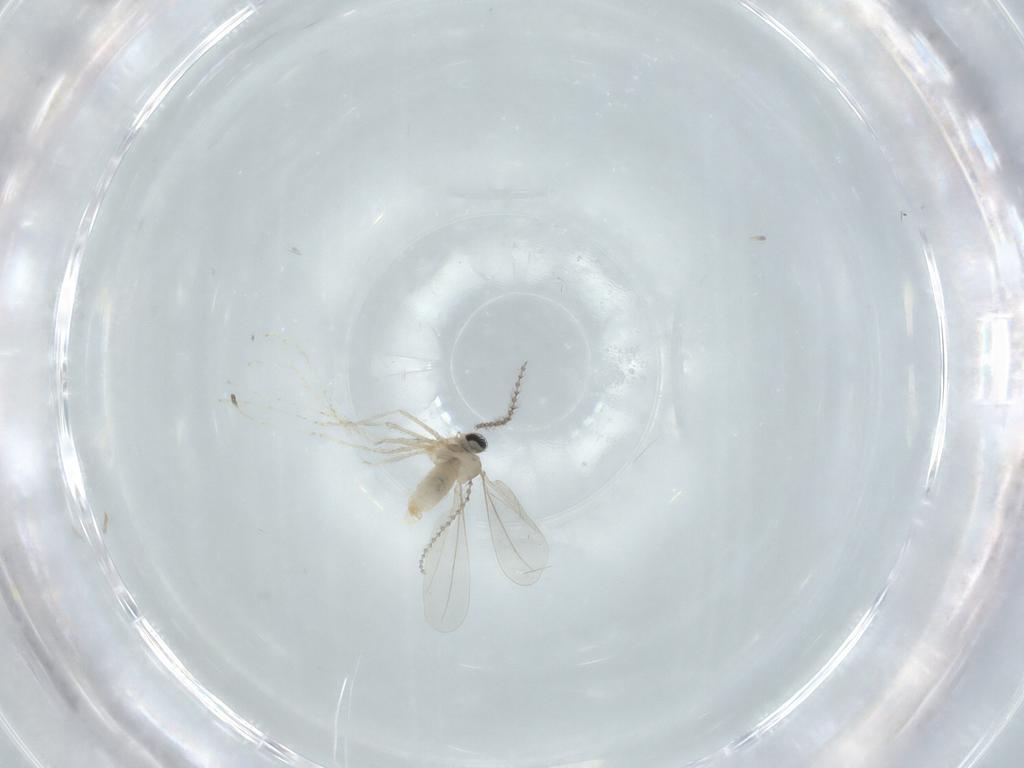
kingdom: Animalia
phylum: Arthropoda
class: Insecta
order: Diptera
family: Cecidomyiidae
